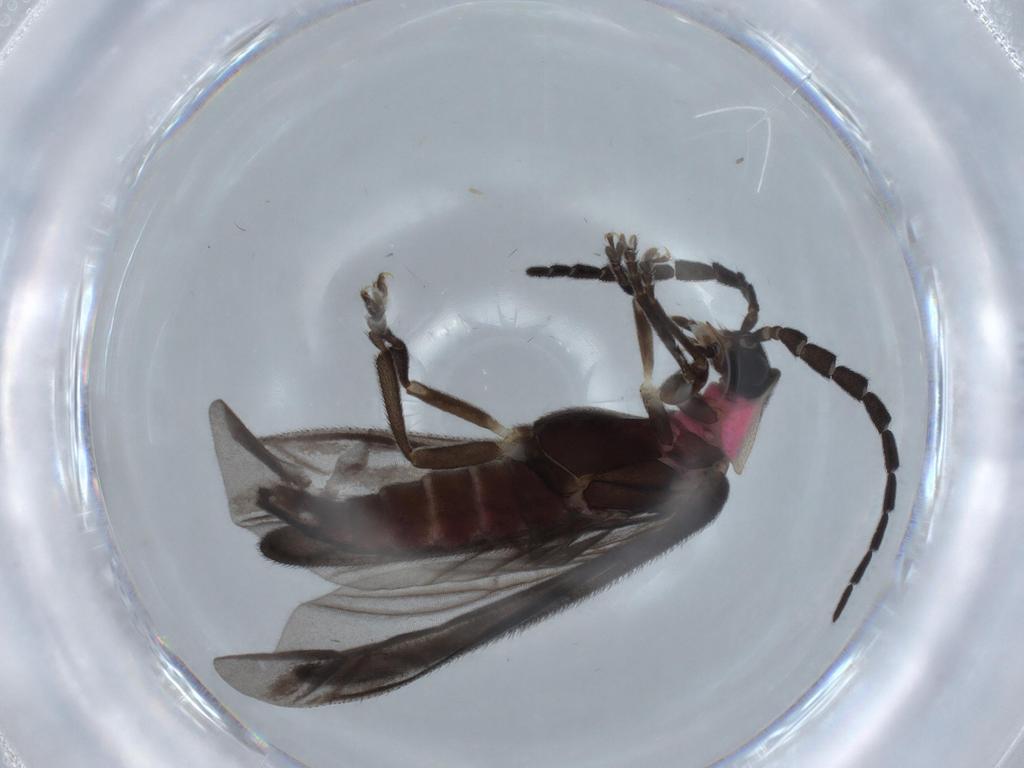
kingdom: Animalia
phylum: Arthropoda
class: Insecta
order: Coleoptera
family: Lampyridae
